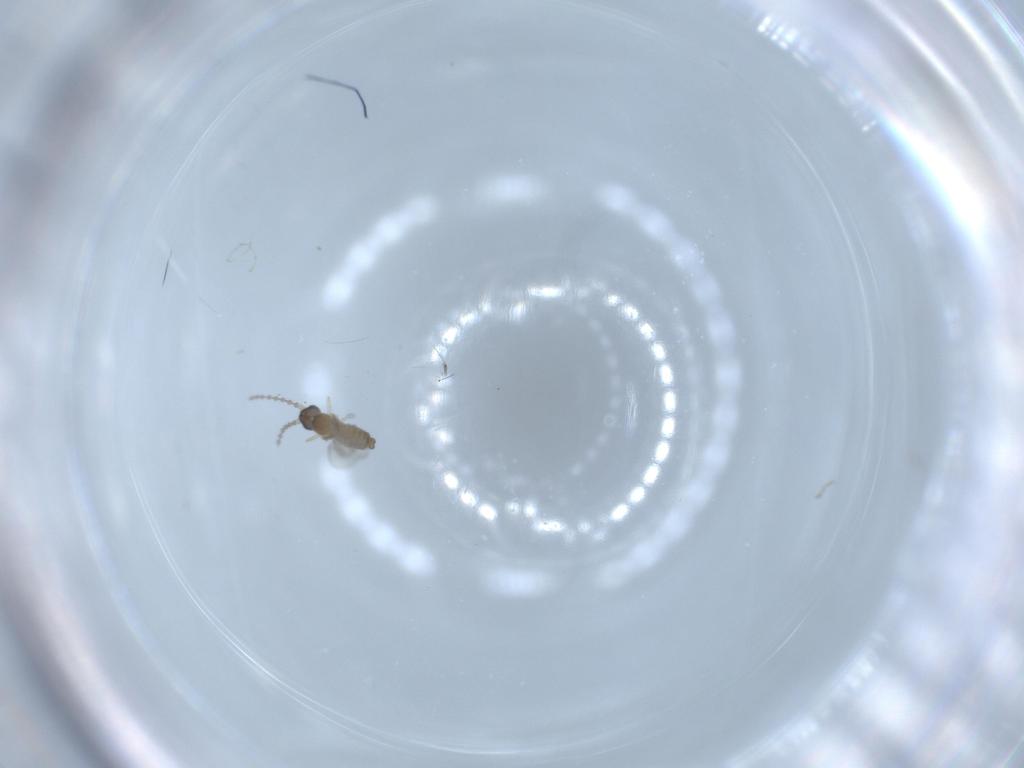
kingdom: Animalia
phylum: Arthropoda
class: Insecta
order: Diptera
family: Cecidomyiidae
